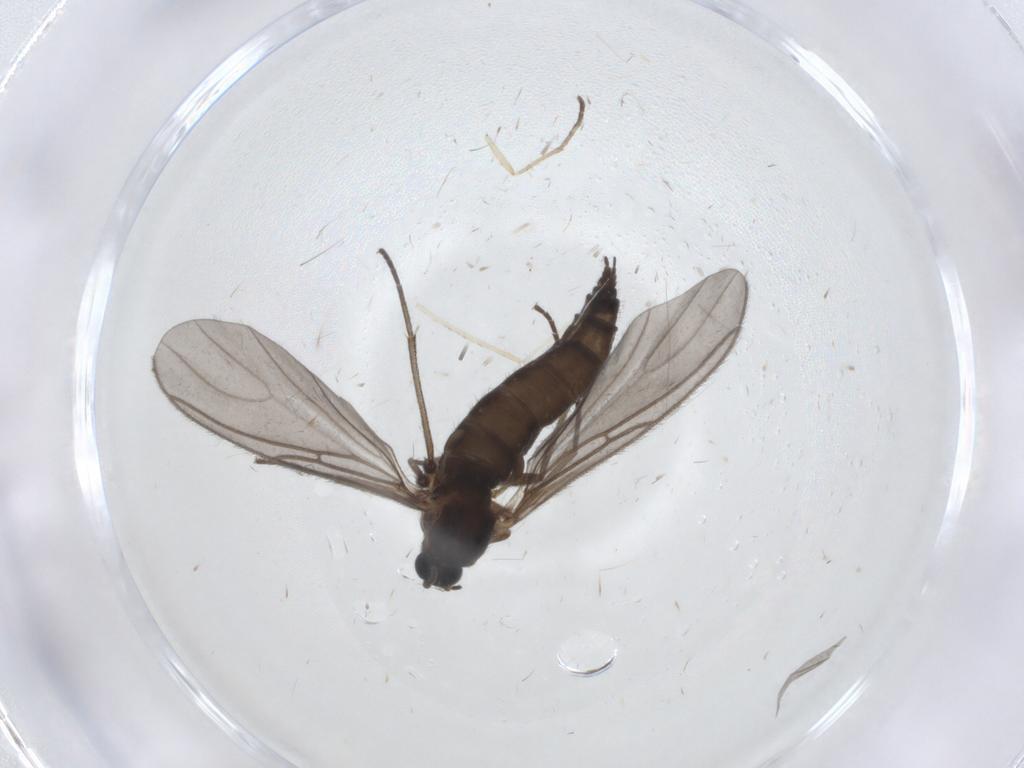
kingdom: Animalia
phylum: Arthropoda
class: Insecta
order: Diptera
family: Sciaridae
